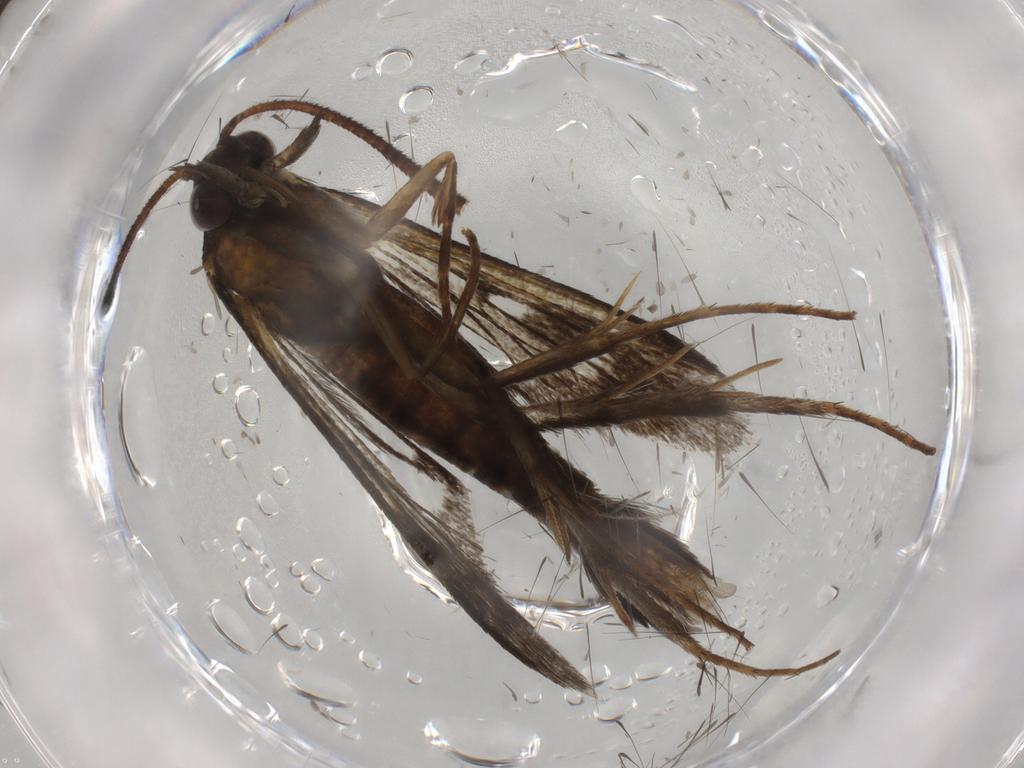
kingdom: Animalia
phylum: Arthropoda
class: Insecta
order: Lepidoptera
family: Sesiidae
